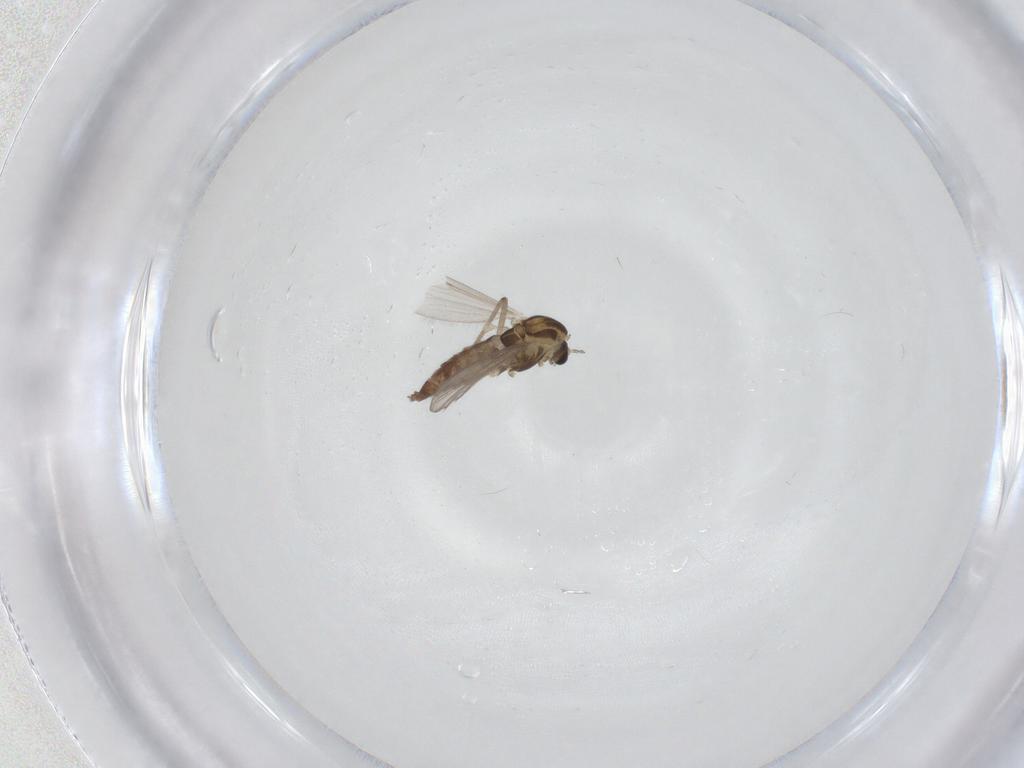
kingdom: Animalia
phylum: Arthropoda
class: Insecta
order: Diptera
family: Chironomidae
